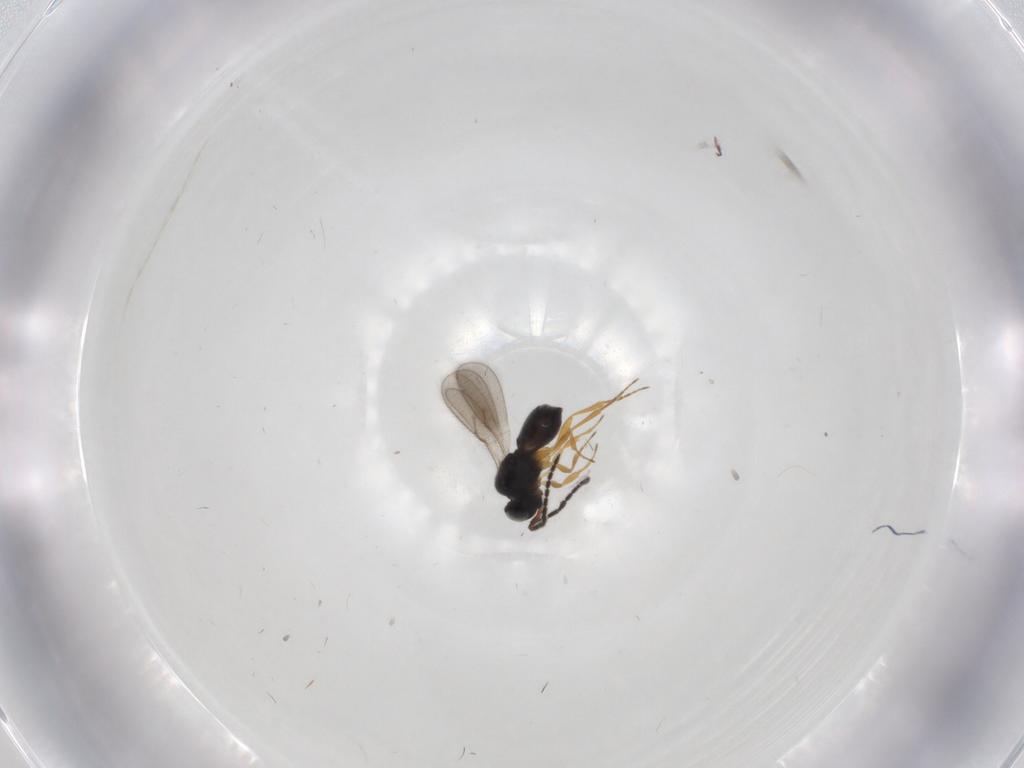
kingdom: Animalia
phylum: Arthropoda
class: Insecta
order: Hymenoptera
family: Scelionidae
